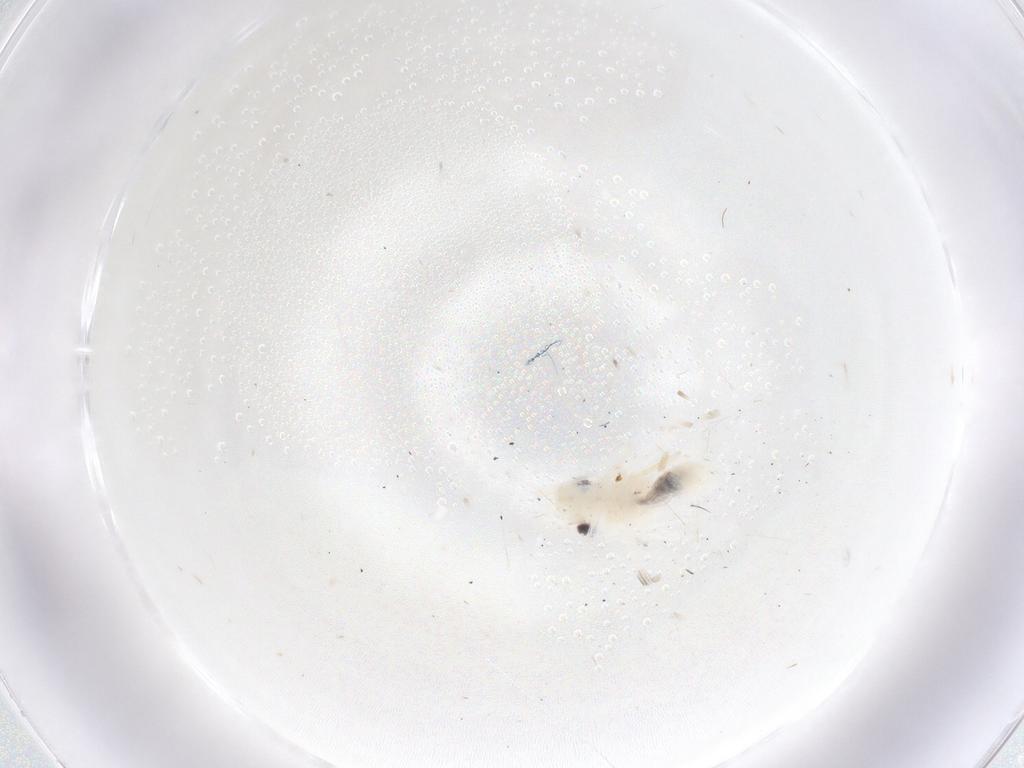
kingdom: Animalia
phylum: Arthropoda
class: Insecta
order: Psocodea
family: Trichopsocidae
